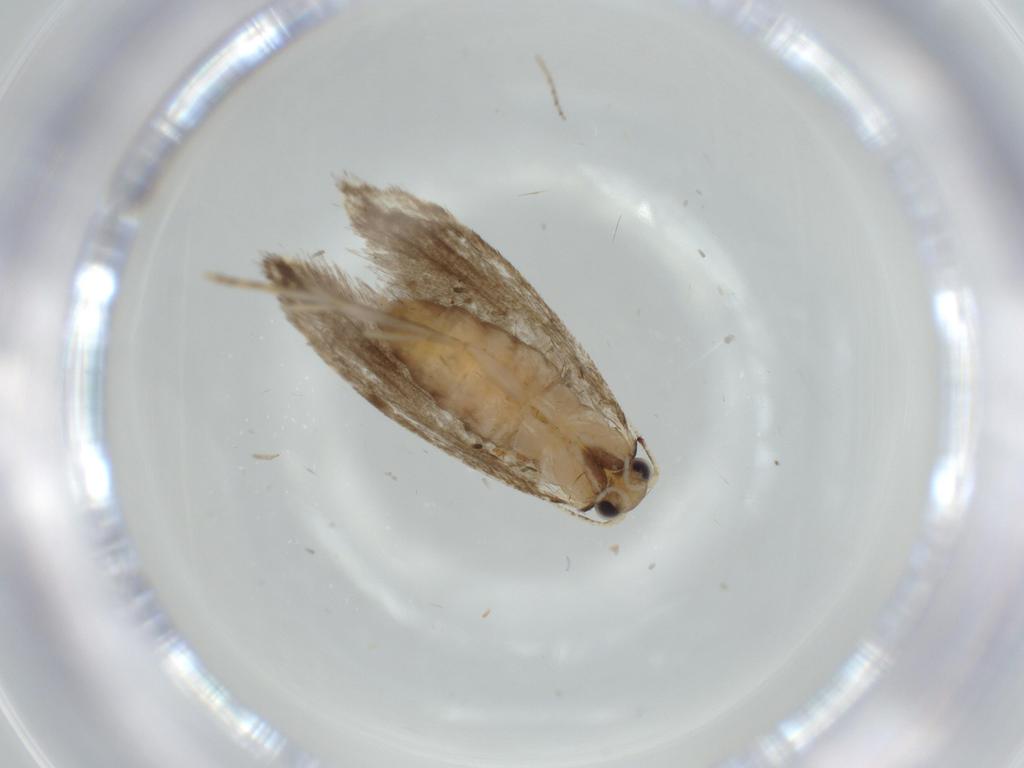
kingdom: Animalia
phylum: Arthropoda
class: Insecta
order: Lepidoptera
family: Tineidae
